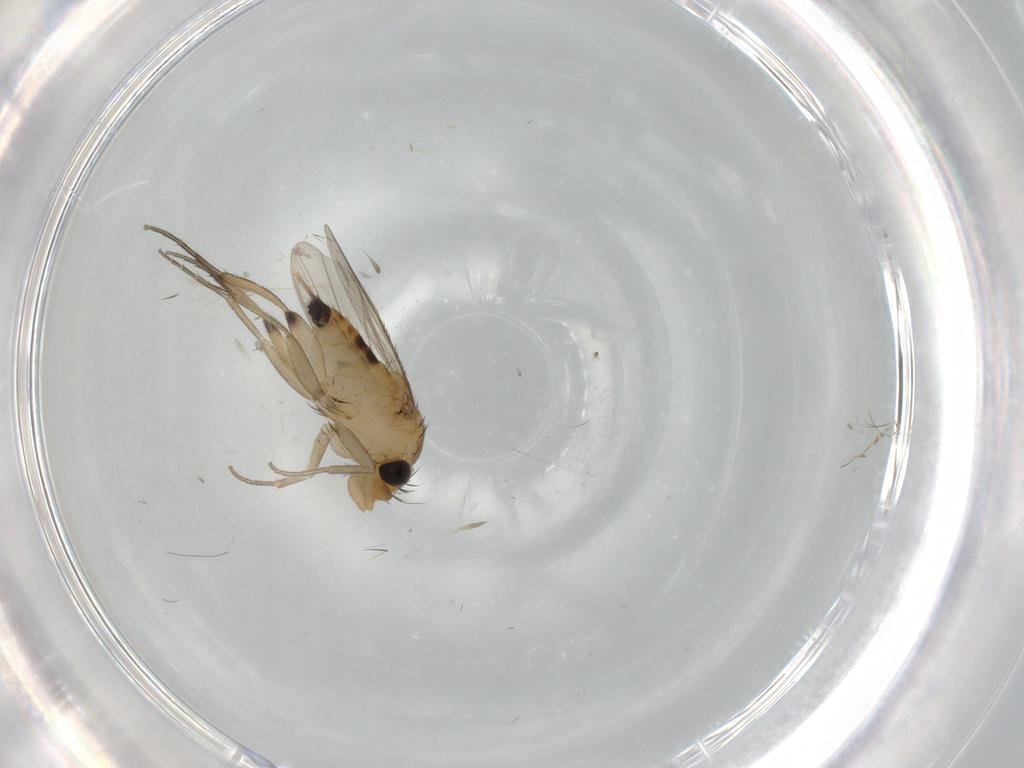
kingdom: Animalia
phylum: Arthropoda
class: Insecta
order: Diptera
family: Phoridae
